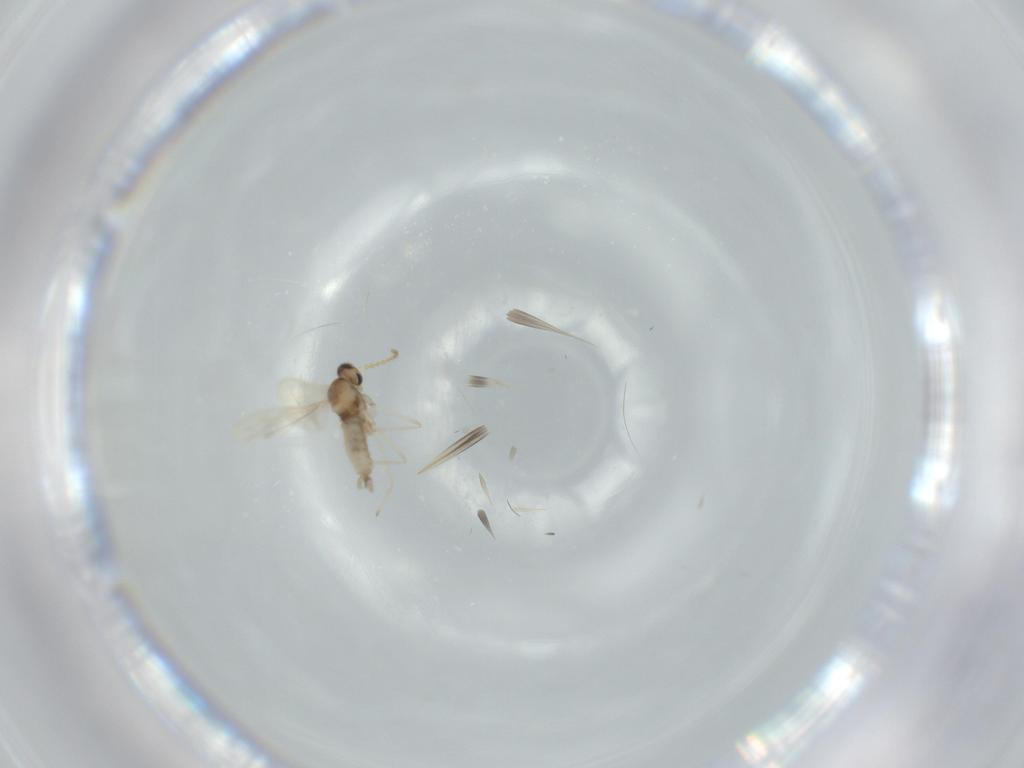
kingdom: Animalia
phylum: Arthropoda
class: Insecta
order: Diptera
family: Cecidomyiidae
